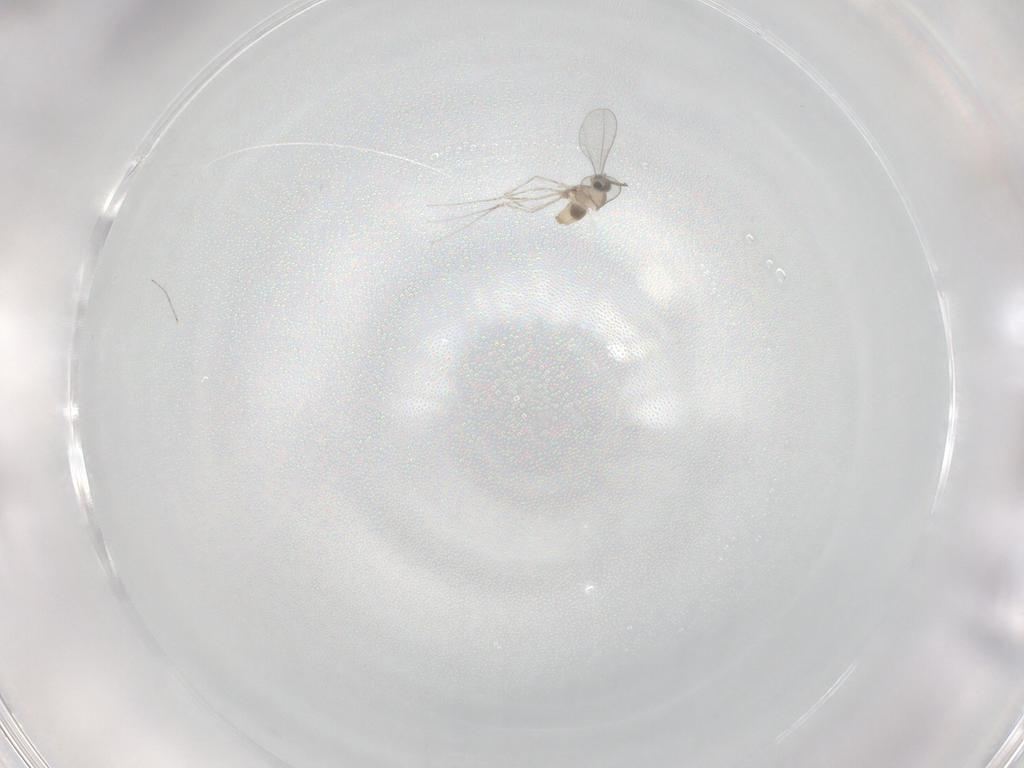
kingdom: Animalia
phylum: Arthropoda
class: Insecta
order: Diptera
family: Cecidomyiidae
